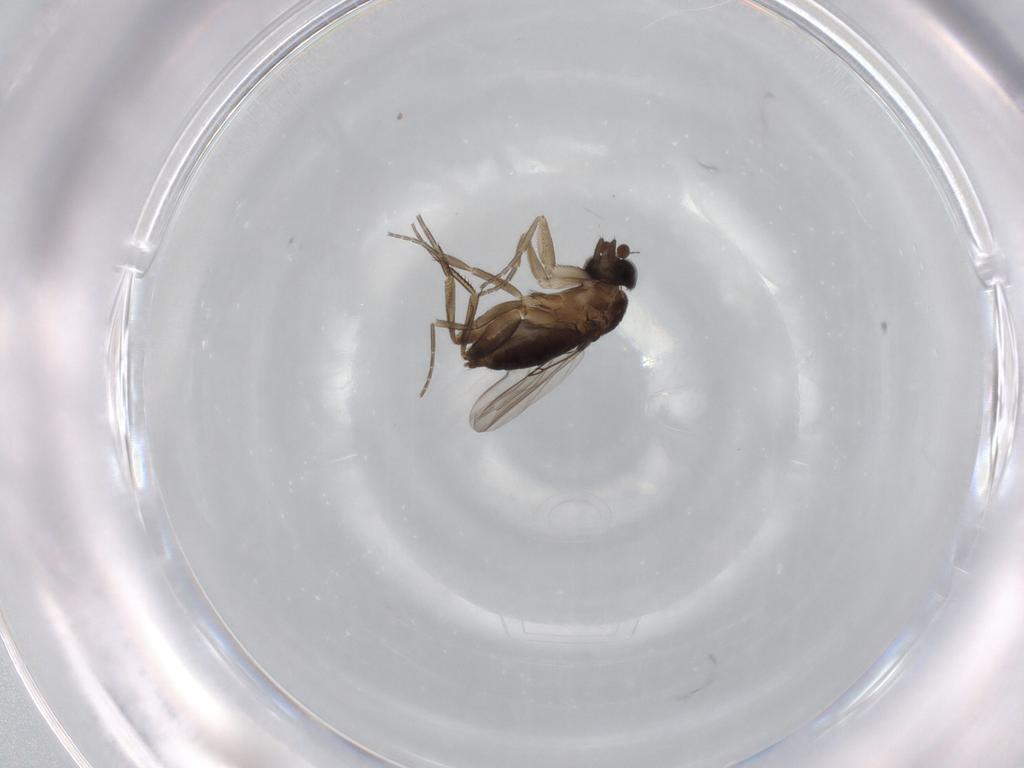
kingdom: Animalia
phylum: Arthropoda
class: Insecta
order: Diptera
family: Phoridae
